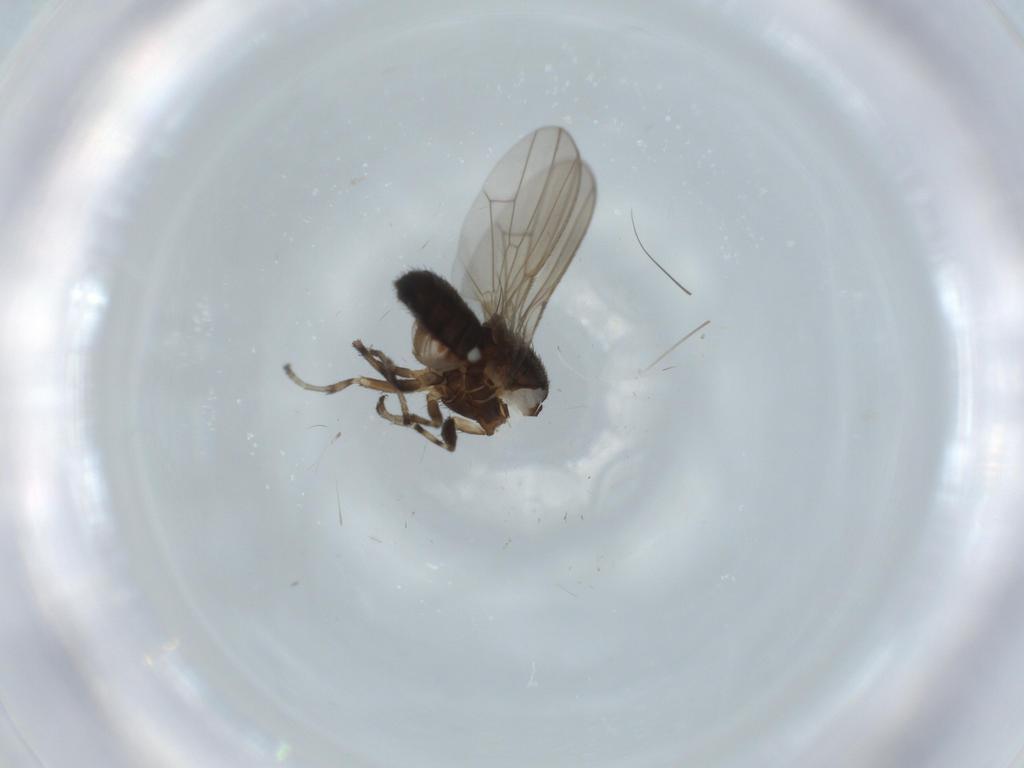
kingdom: Animalia
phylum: Arthropoda
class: Insecta
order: Diptera
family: Heleomyzidae
